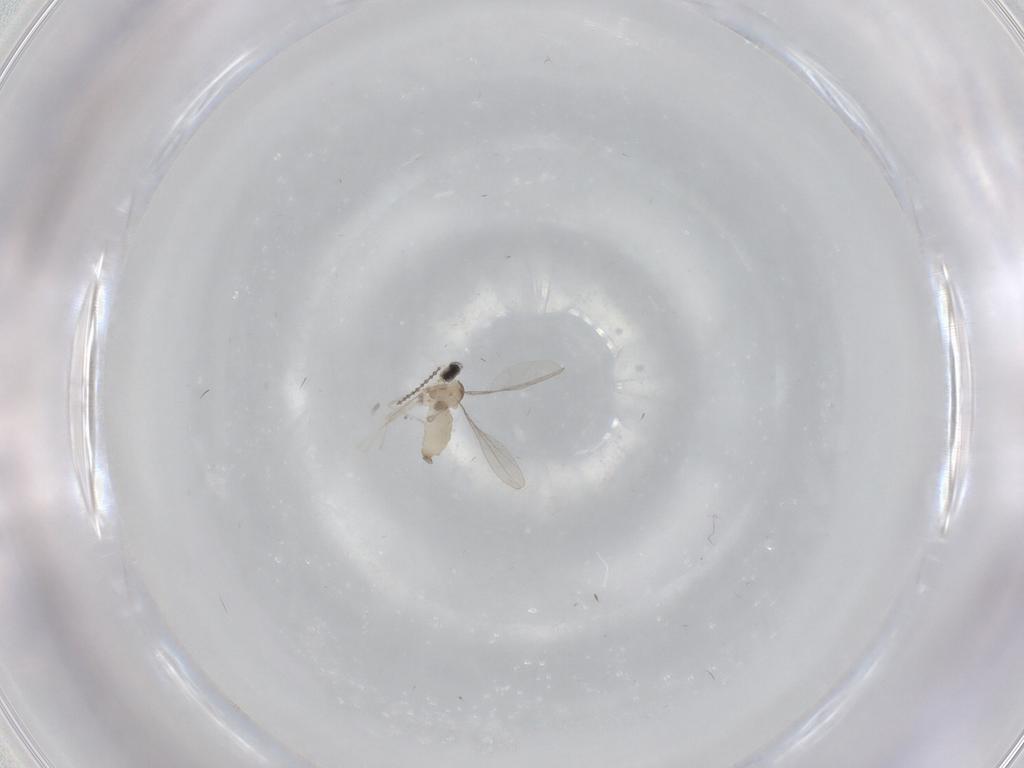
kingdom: Animalia
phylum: Arthropoda
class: Insecta
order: Diptera
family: Cecidomyiidae
